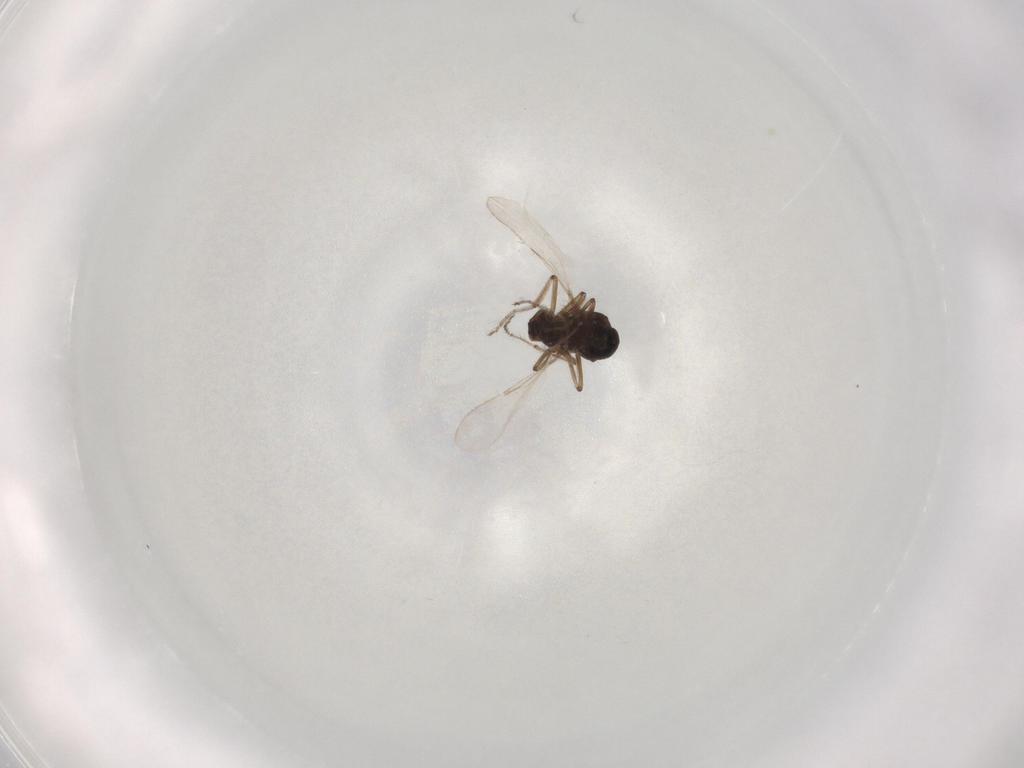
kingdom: Animalia
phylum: Arthropoda
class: Insecta
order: Diptera
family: Chironomidae
